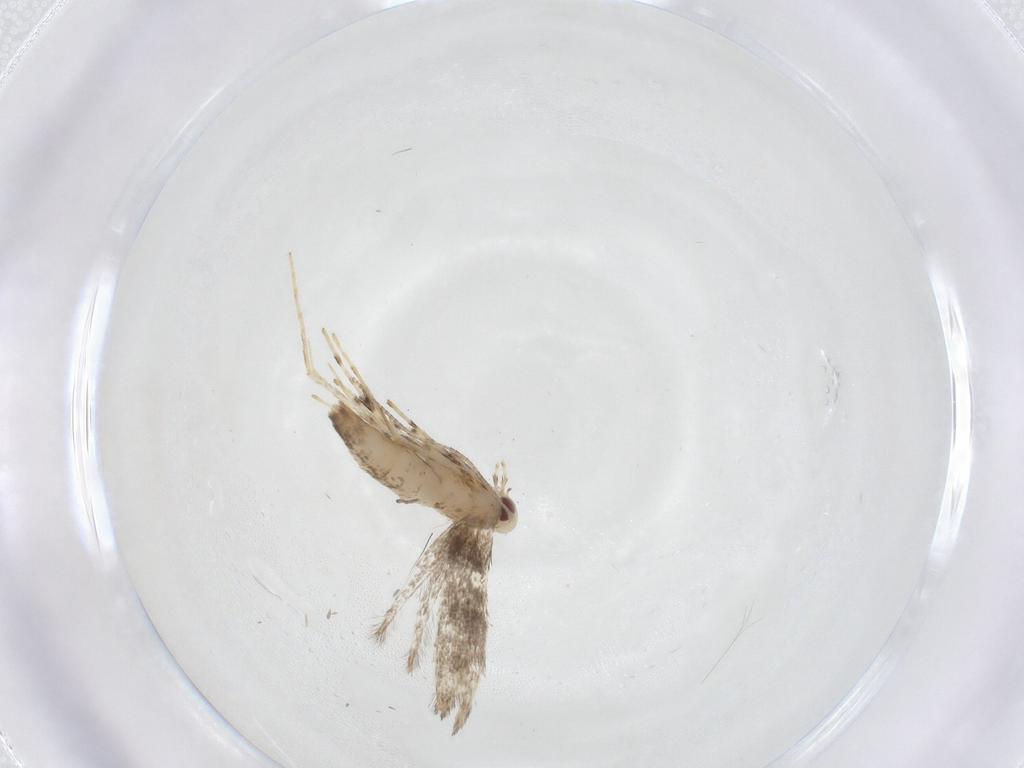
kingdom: Animalia
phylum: Arthropoda
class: Insecta
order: Lepidoptera
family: Gracillariidae
